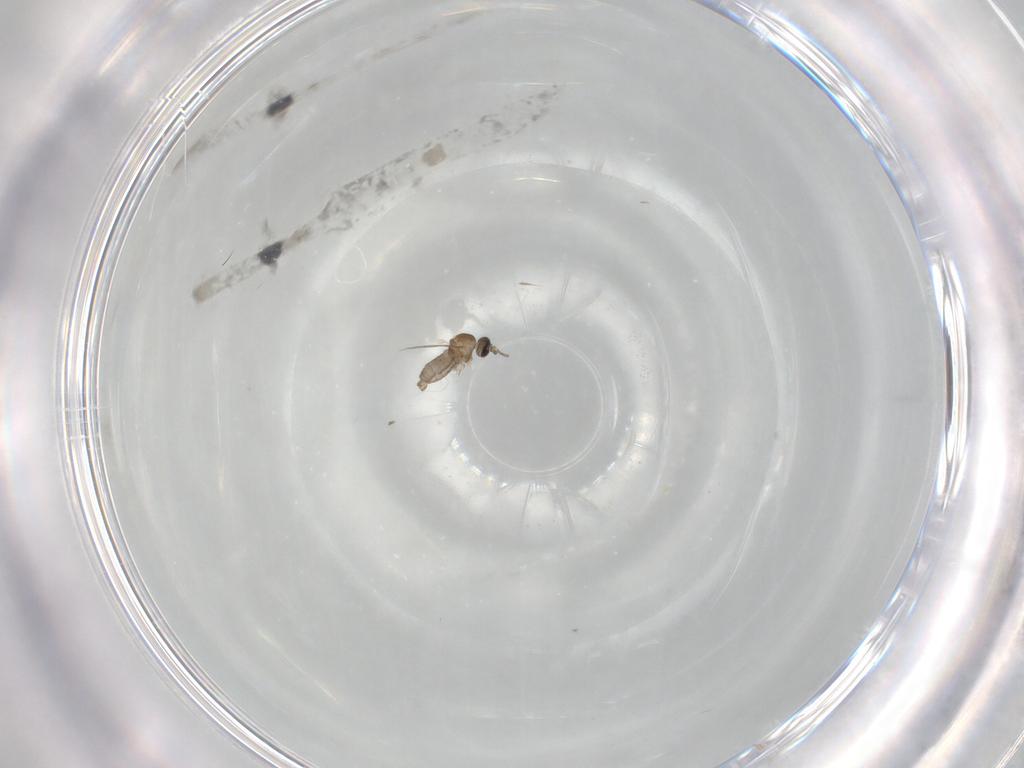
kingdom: Animalia
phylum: Arthropoda
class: Insecta
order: Diptera
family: Cecidomyiidae
